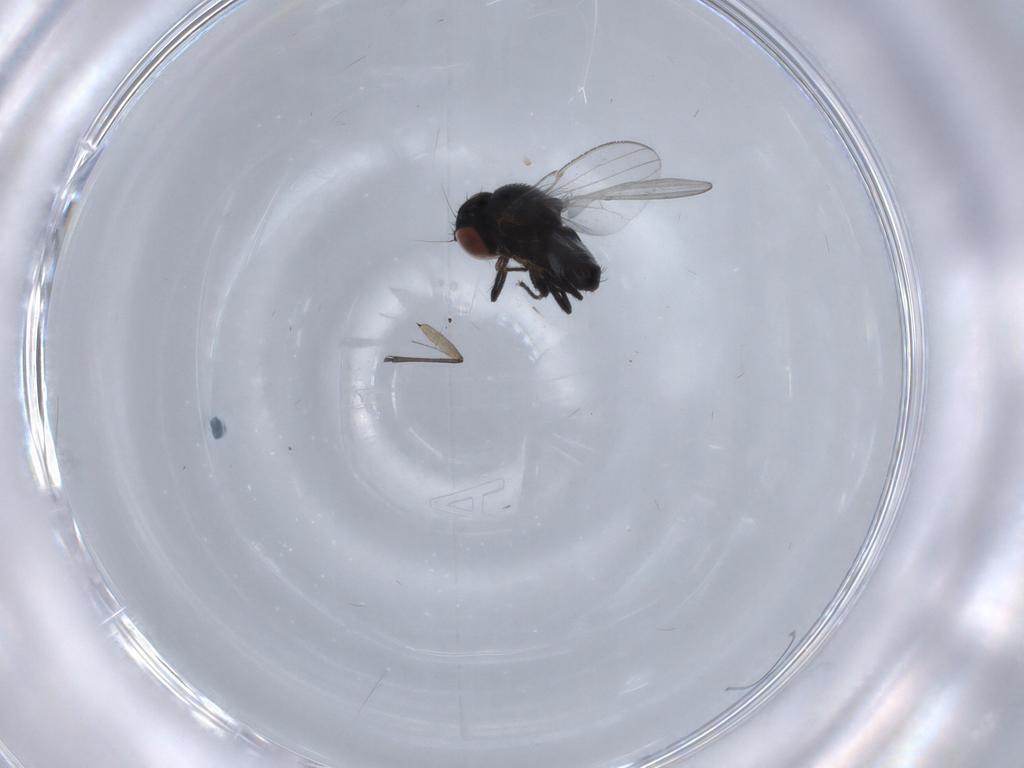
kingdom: Animalia
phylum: Arthropoda
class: Insecta
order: Diptera
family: Milichiidae
